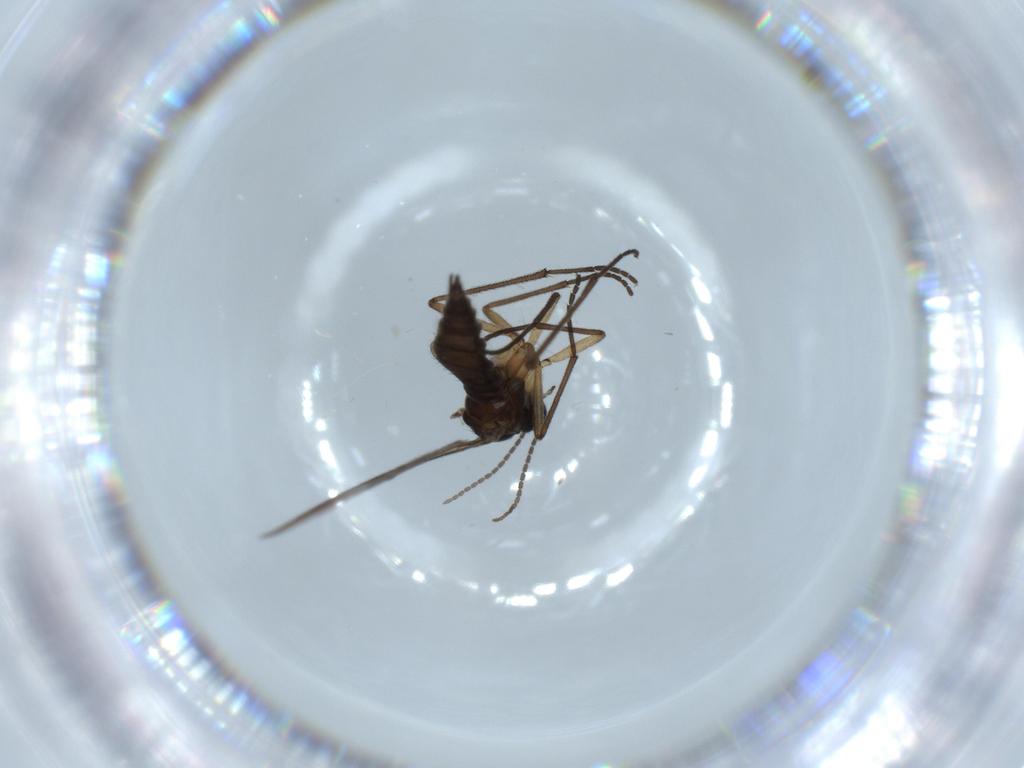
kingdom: Animalia
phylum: Arthropoda
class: Insecta
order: Diptera
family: Sciaridae
